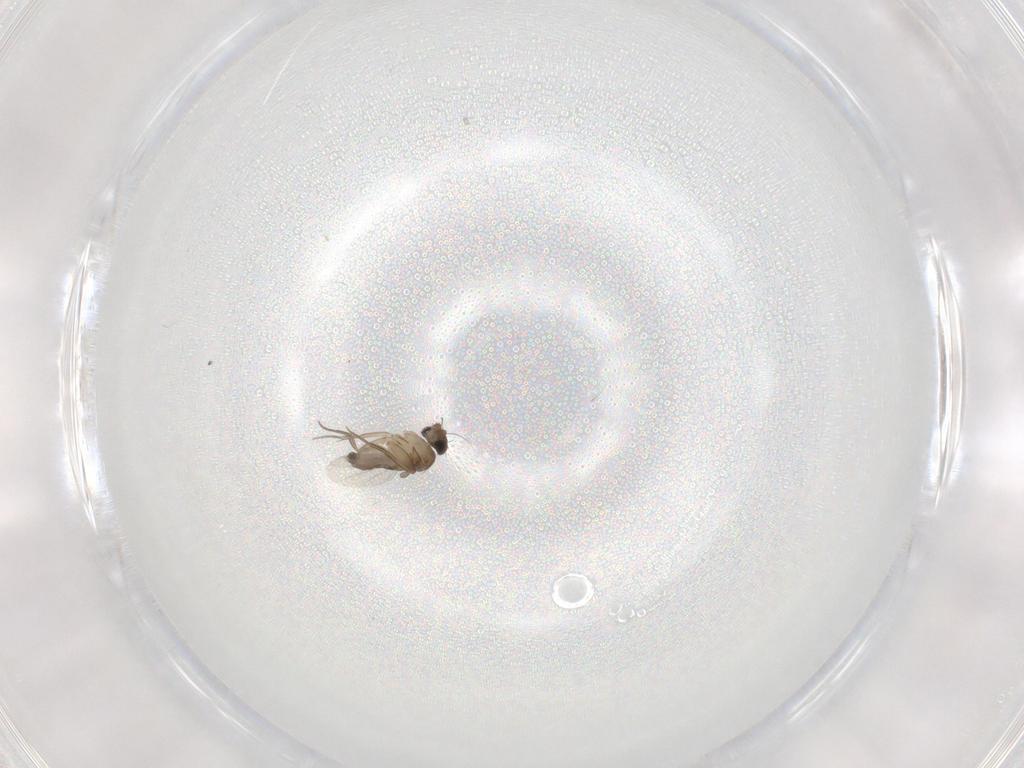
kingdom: Animalia
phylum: Arthropoda
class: Insecta
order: Diptera
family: Phoridae
